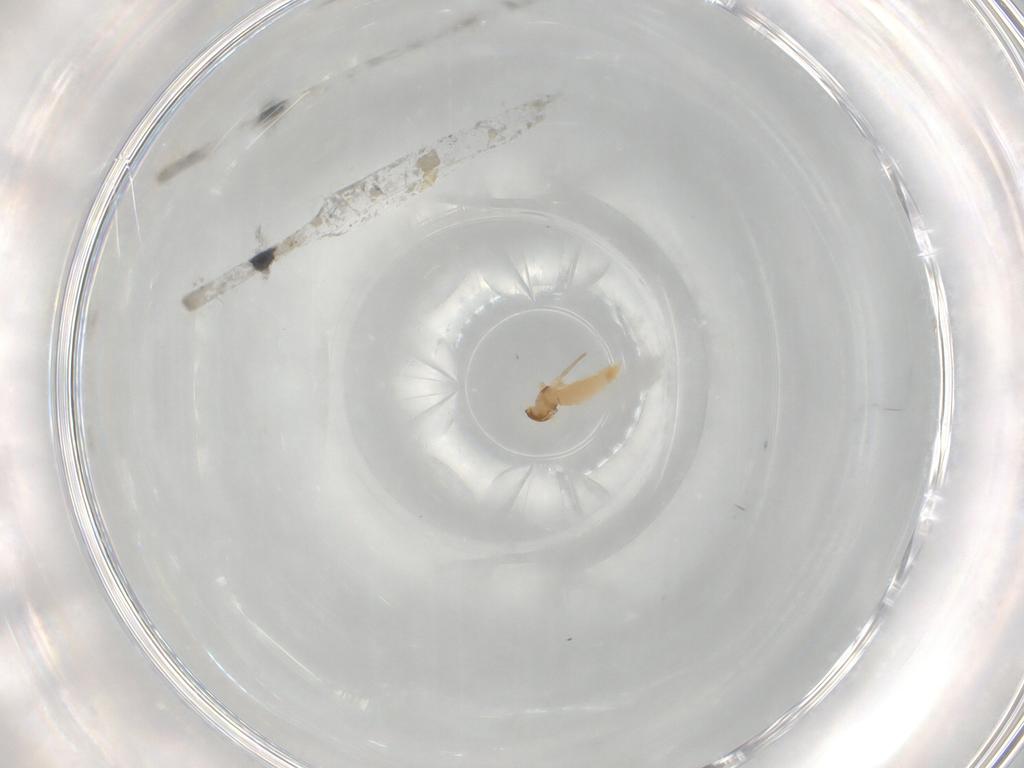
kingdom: Animalia
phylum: Arthropoda
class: Insecta
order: Diptera
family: Cecidomyiidae
